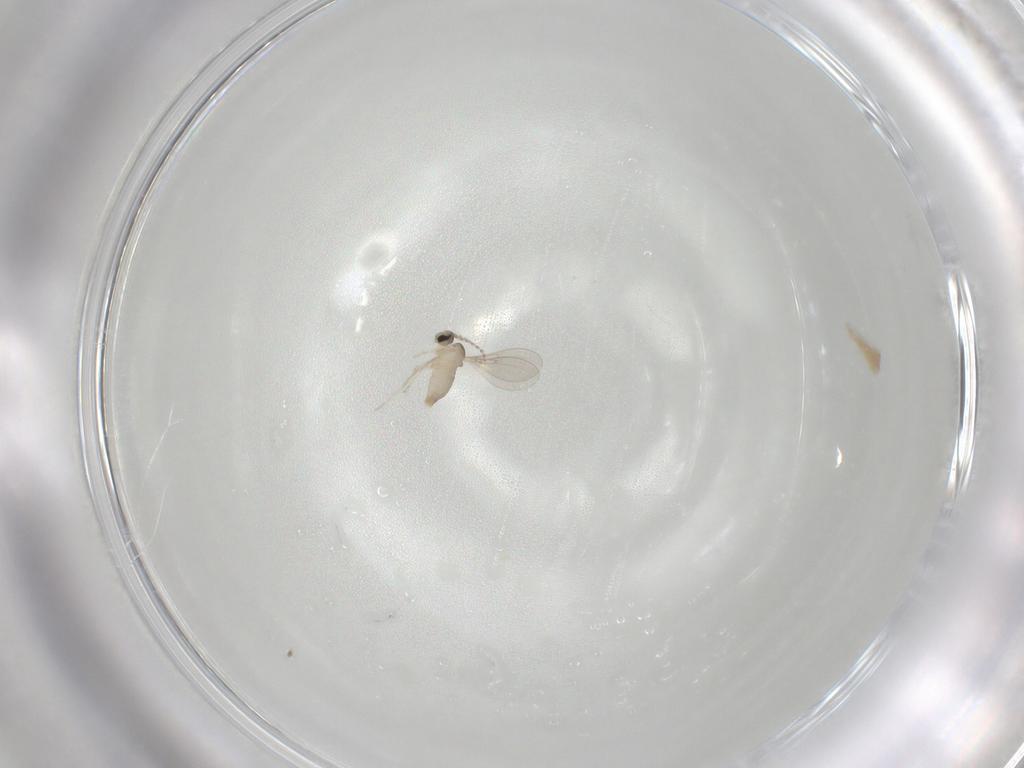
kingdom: Animalia
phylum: Arthropoda
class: Insecta
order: Diptera
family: Cecidomyiidae
